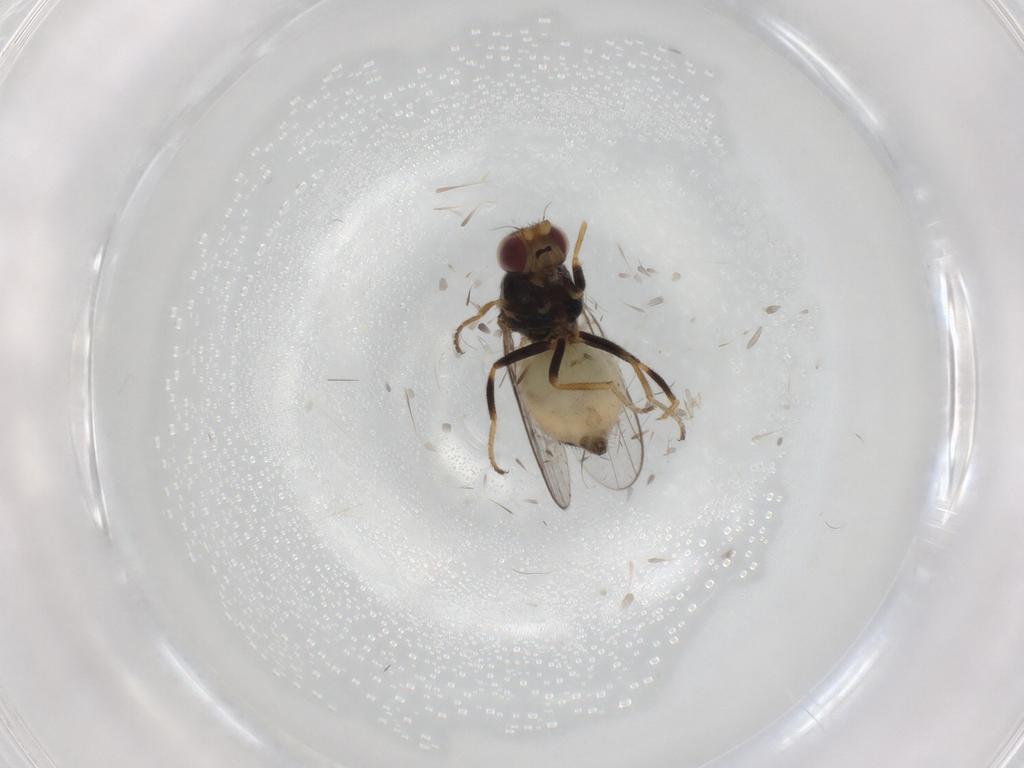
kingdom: Animalia
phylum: Arthropoda
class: Insecta
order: Diptera
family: Chloropidae
